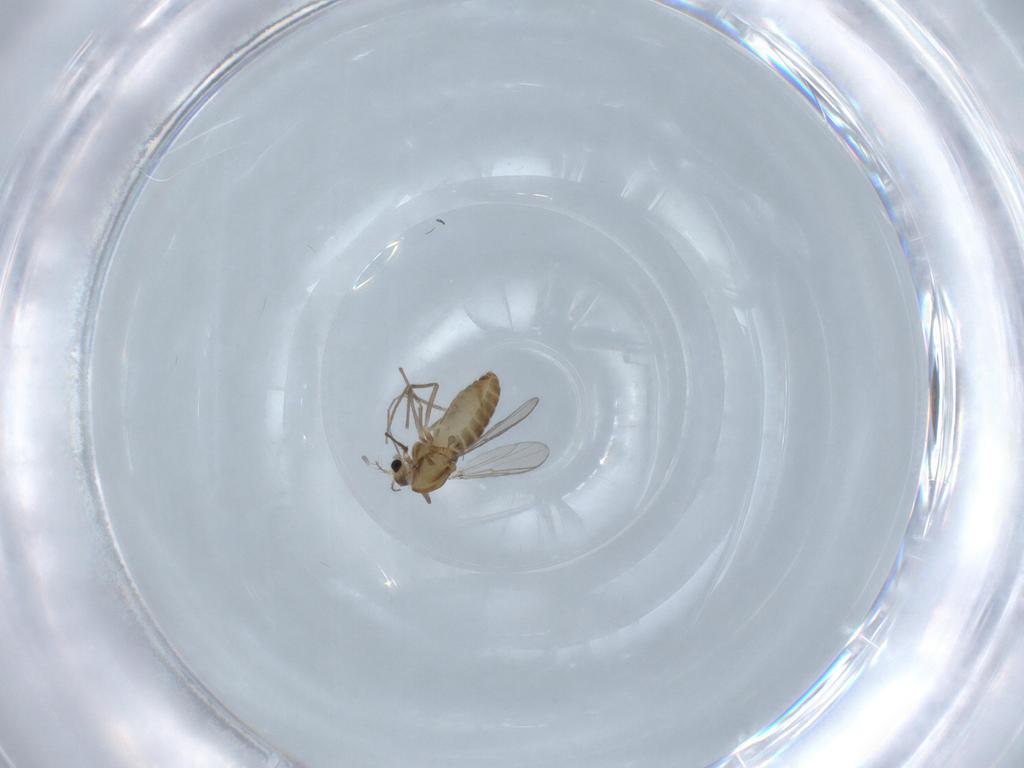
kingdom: Animalia
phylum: Arthropoda
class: Insecta
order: Diptera
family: Chironomidae
